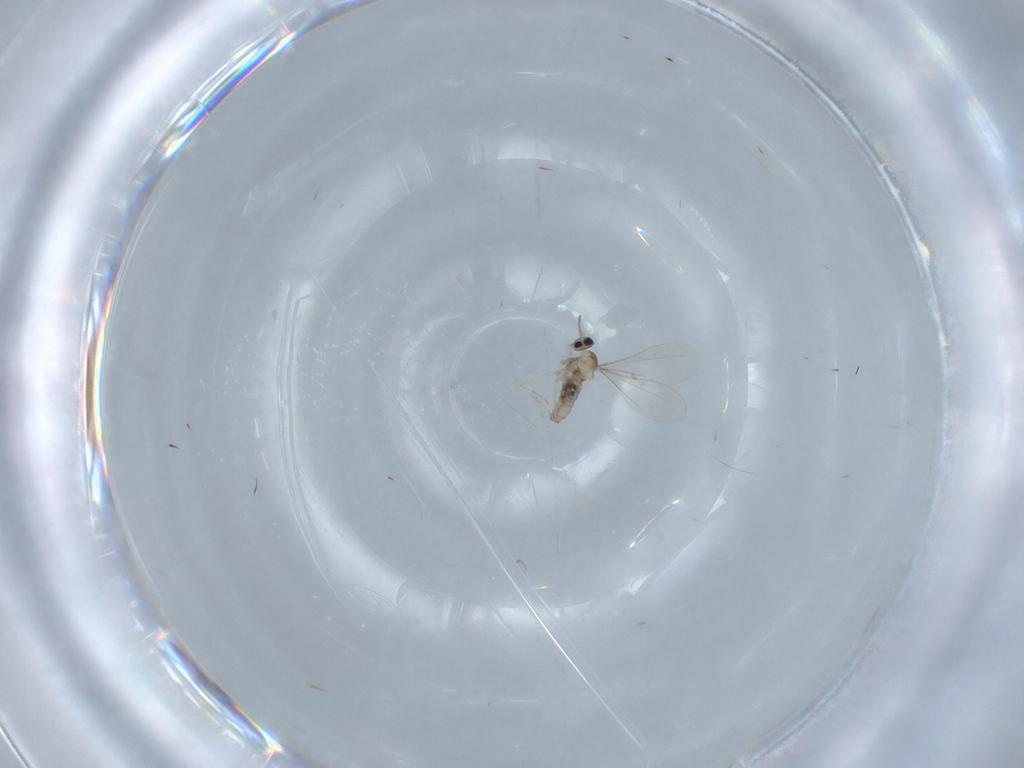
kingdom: Animalia
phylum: Arthropoda
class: Insecta
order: Diptera
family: Cecidomyiidae
